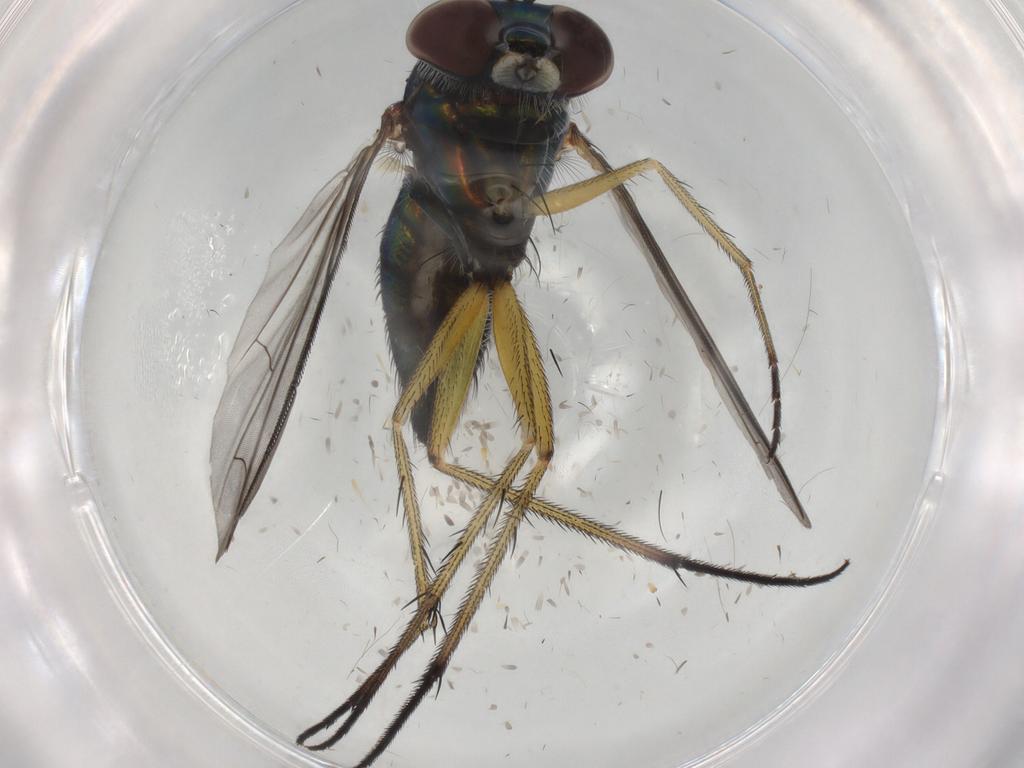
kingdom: Animalia
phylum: Arthropoda
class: Insecta
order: Diptera
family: Dolichopodidae
